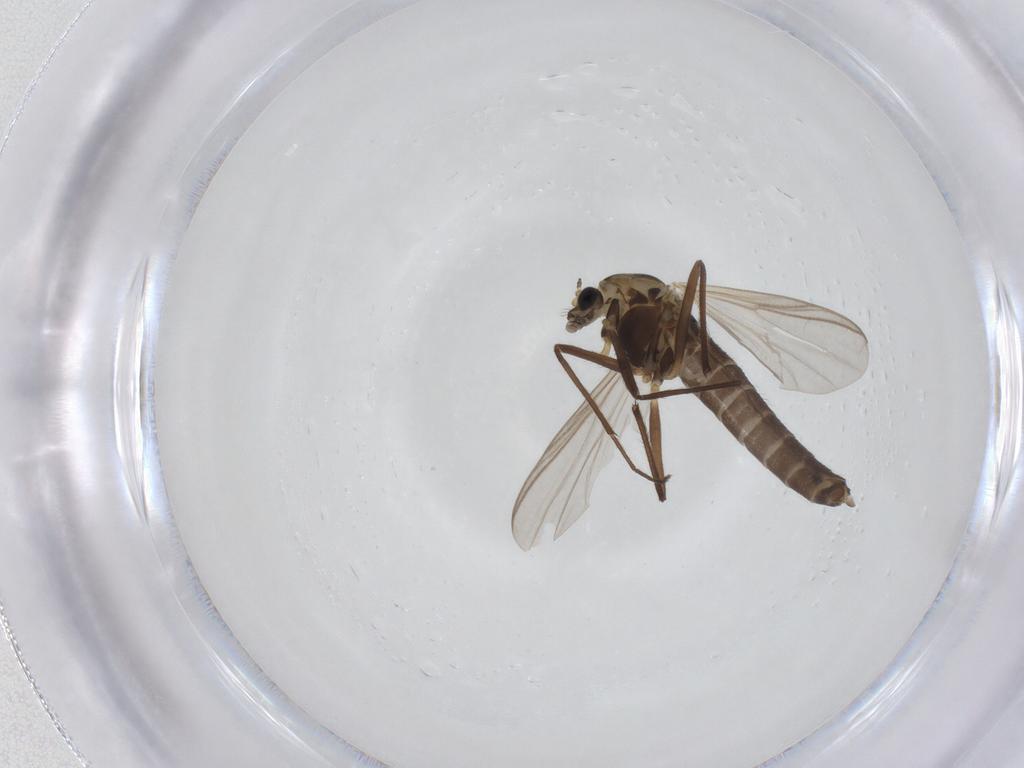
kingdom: Animalia
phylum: Arthropoda
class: Insecta
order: Diptera
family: Chironomidae
